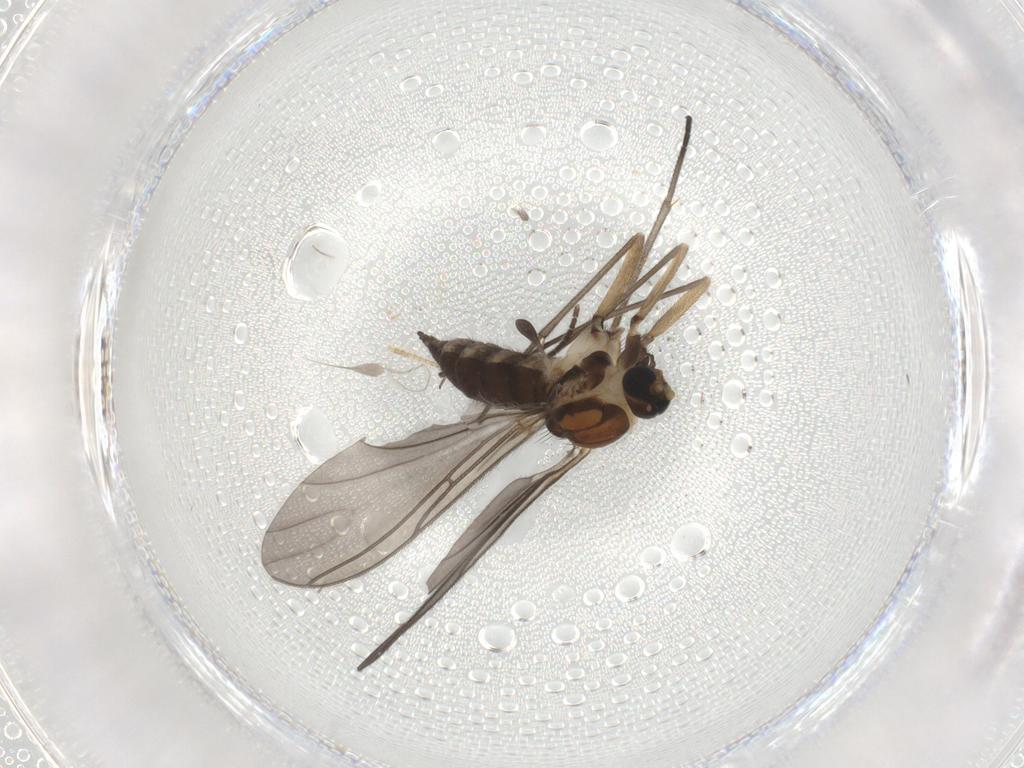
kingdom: Animalia
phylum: Arthropoda
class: Insecta
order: Diptera
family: Sciaridae
